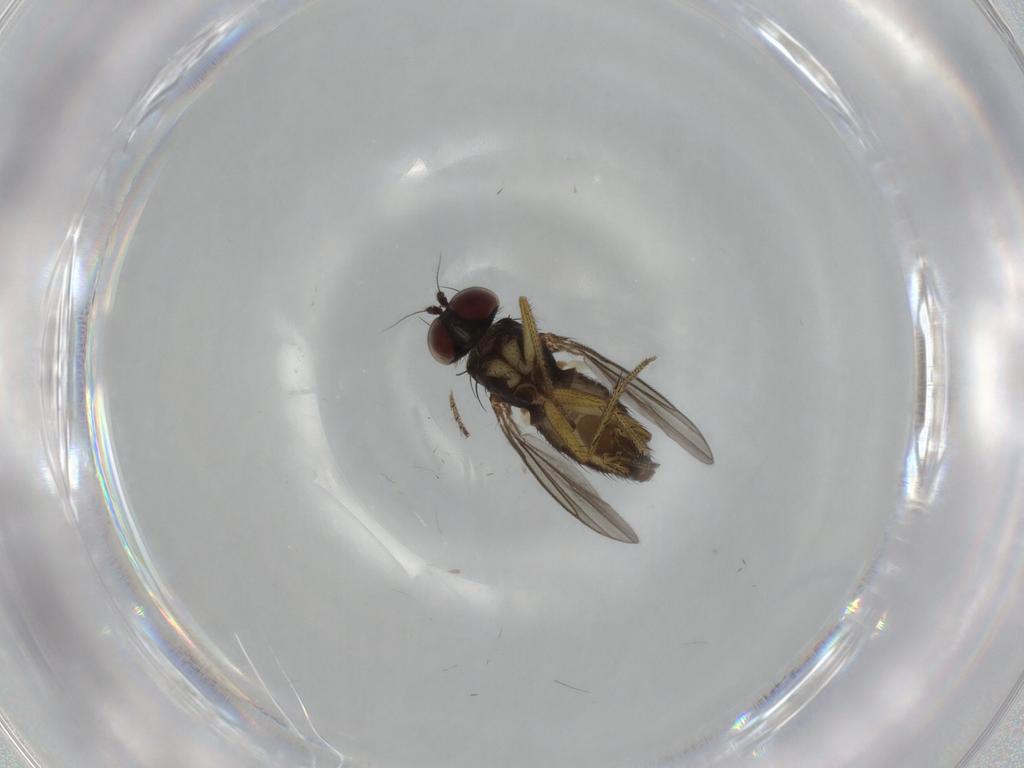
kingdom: Animalia
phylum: Arthropoda
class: Insecta
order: Diptera
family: Dolichopodidae
